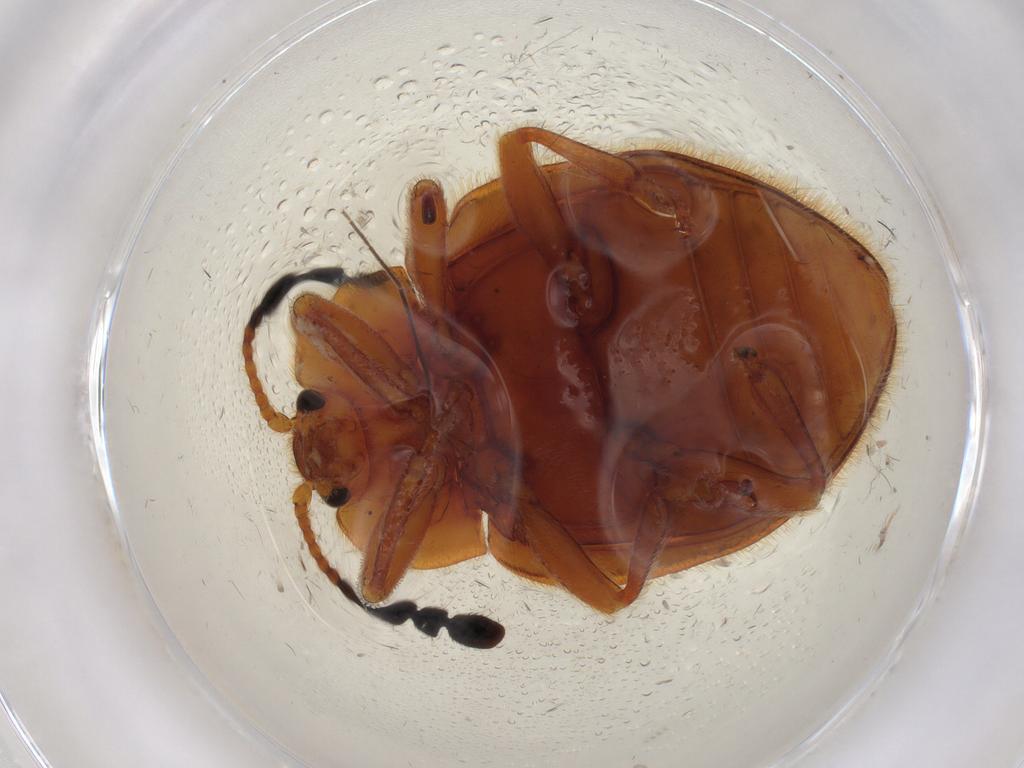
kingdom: Animalia
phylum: Arthropoda
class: Insecta
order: Coleoptera
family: Endomychidae
